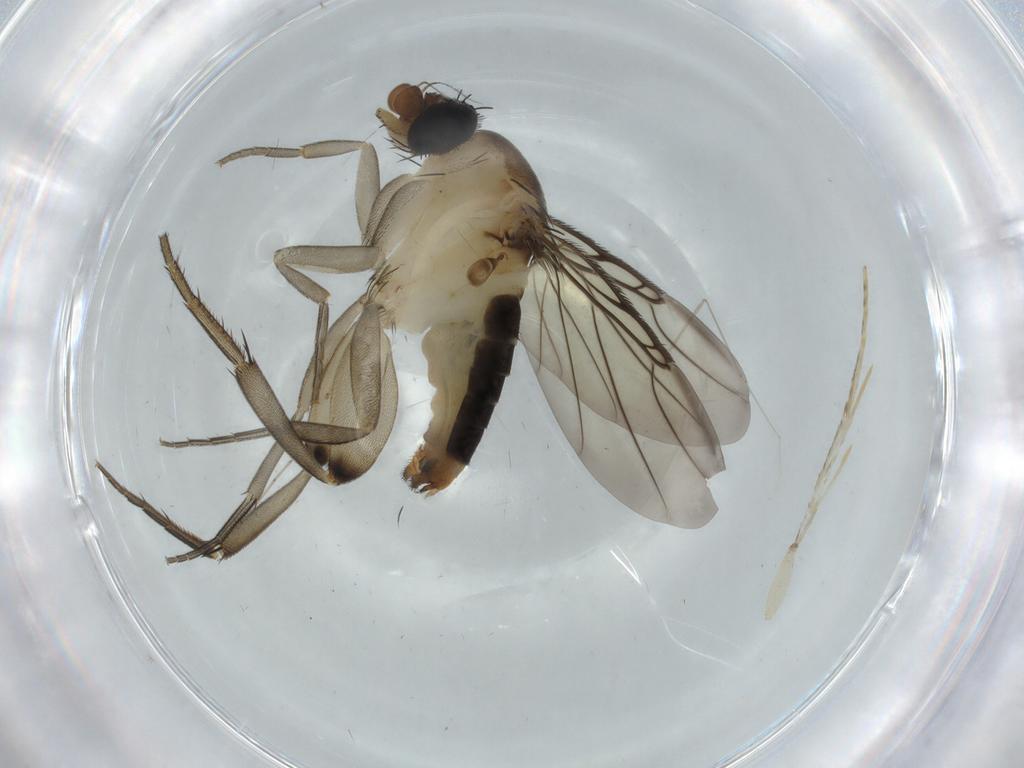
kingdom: Animalia
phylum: Arthropoda
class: Insecta
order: Diptera
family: Phoridae
